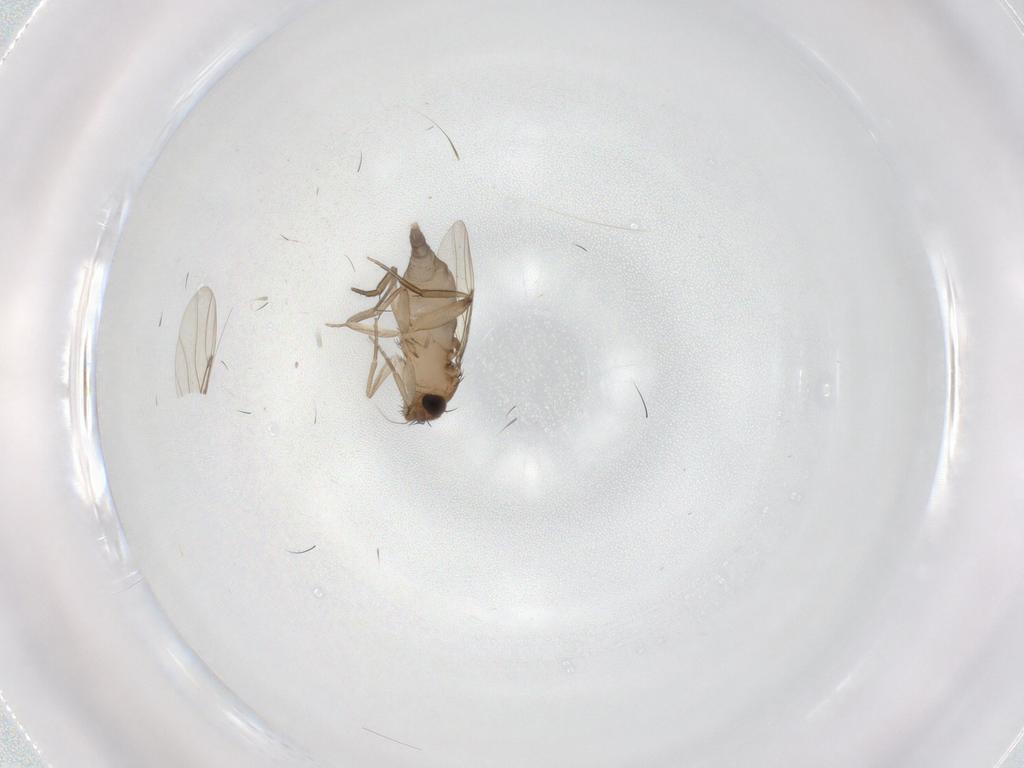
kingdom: Animalia
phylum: Arthropoda
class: Insecta
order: Diptera
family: Phoridae
